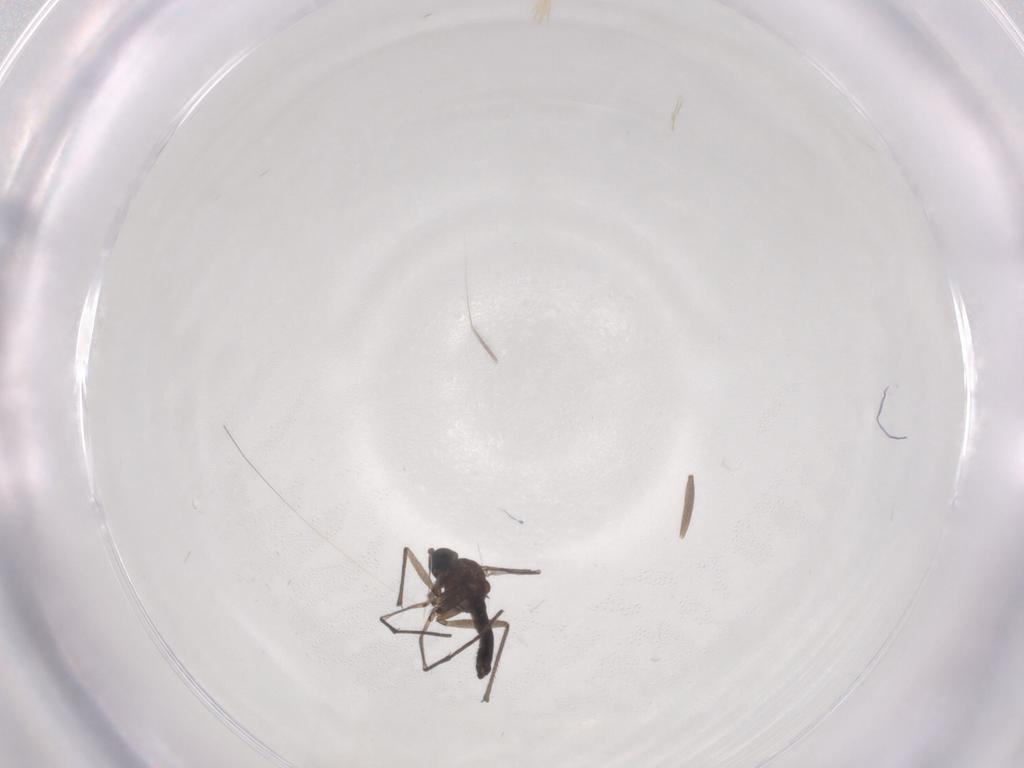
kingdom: Animalia
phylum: Arthropoda
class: Insecta
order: Diptera
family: Sciaridae
